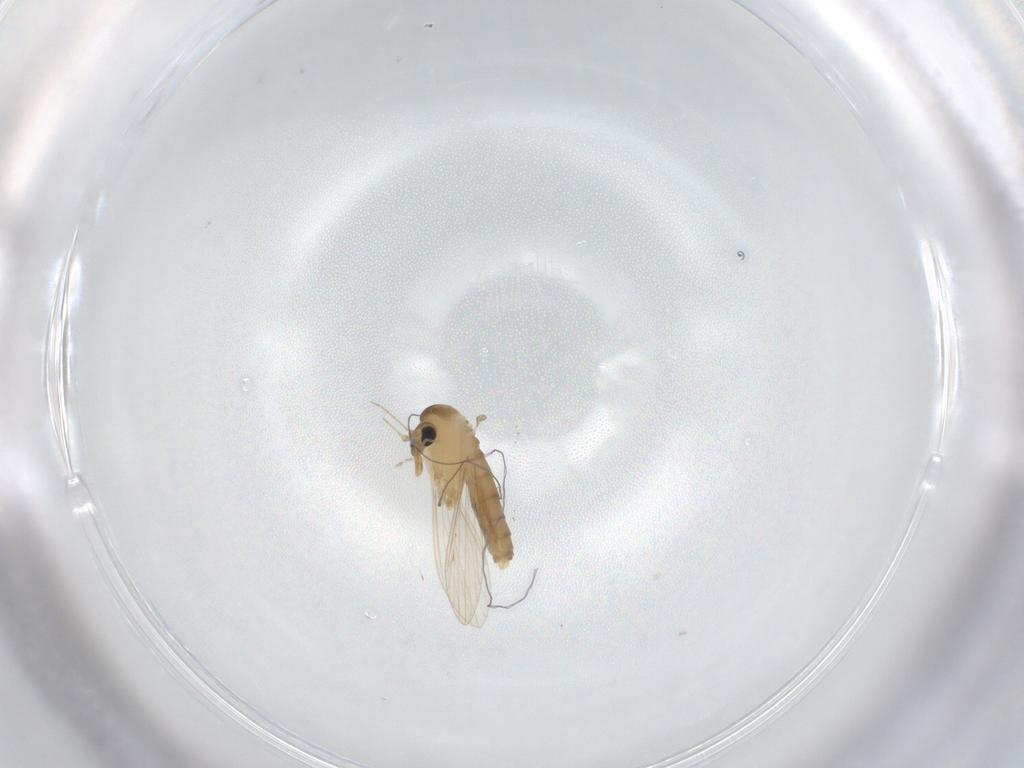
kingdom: Animalia
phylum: Arthropoda
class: Insecta
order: Diptera
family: Psychodidae
